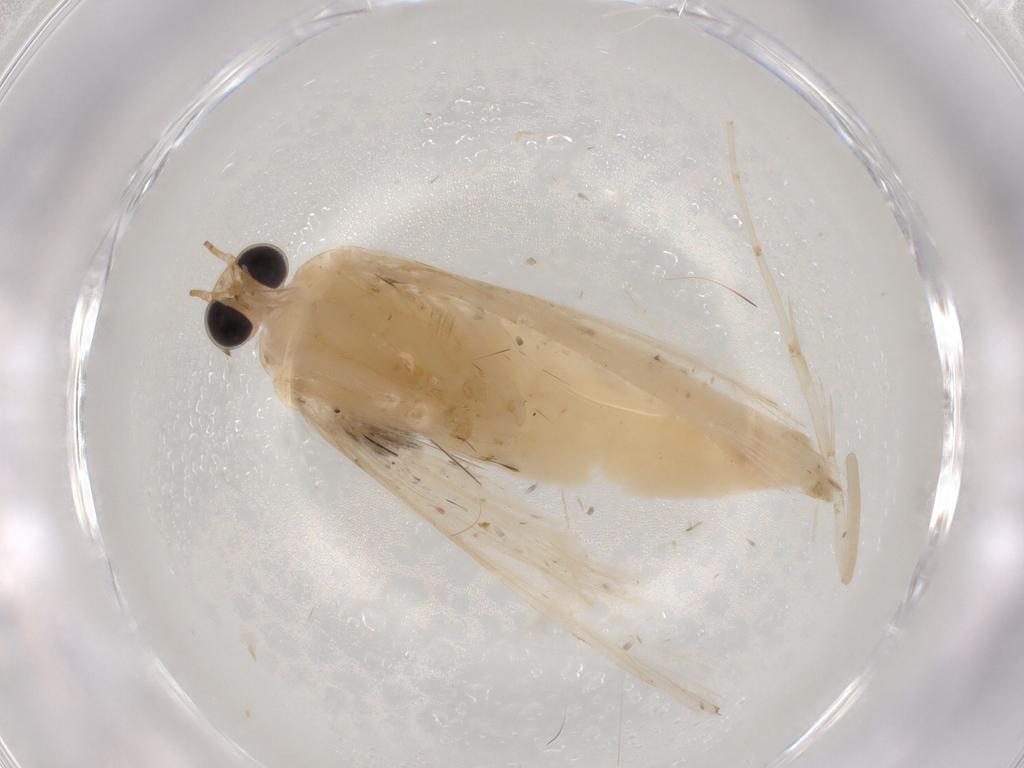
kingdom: Animalia
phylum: Arthropoda
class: Insecta
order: Lepidoptera
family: Pyralidae
